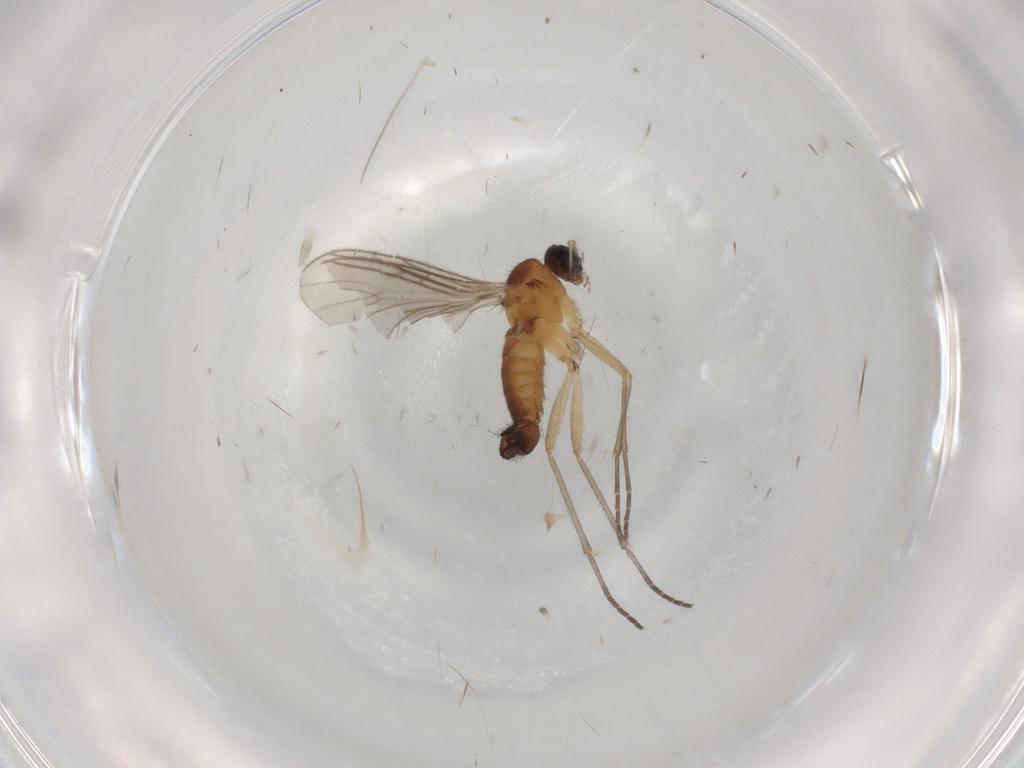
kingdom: Animalia
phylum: Arthropoda
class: Insecta
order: Diptera
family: Sciaridae
